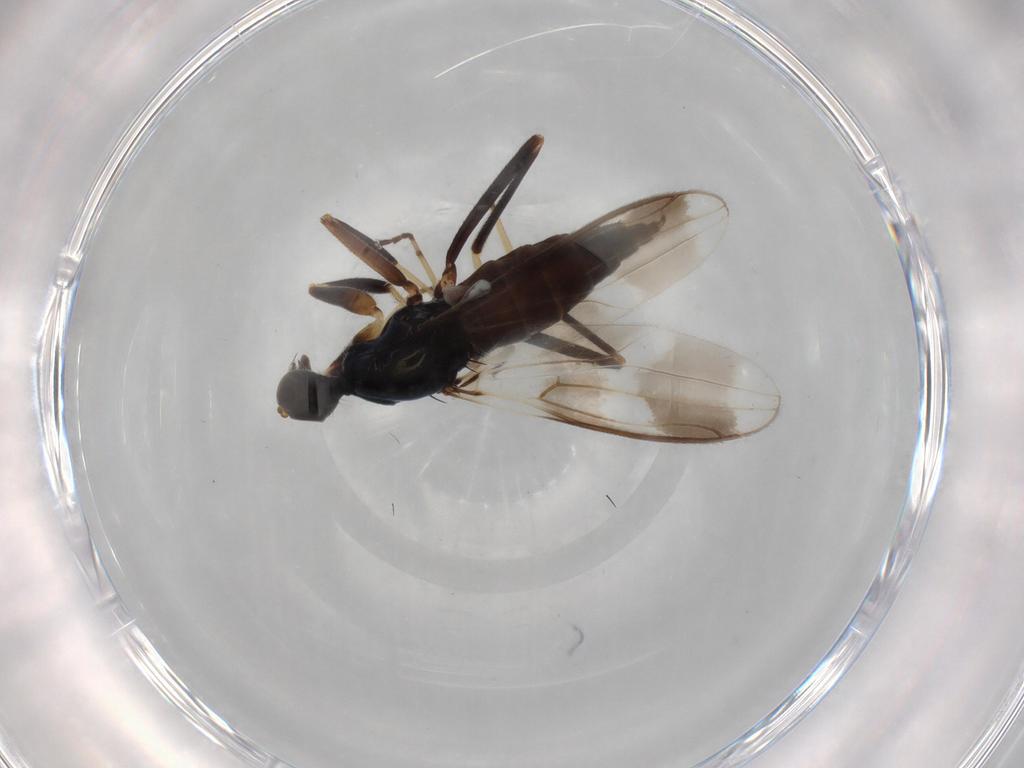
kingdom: Animalia
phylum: Arthropoda
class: Insecta
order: Diptera
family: Hybotidae
